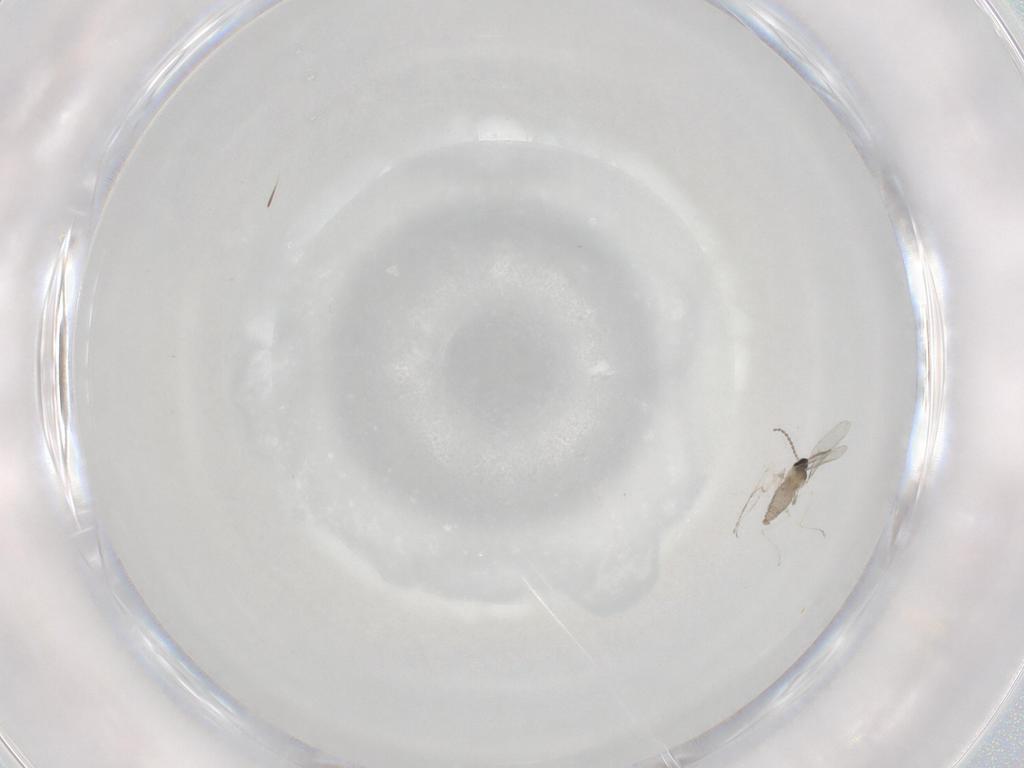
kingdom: Animalia
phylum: Arthropoda
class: Insecta
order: Diptera
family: Cecidomyiidae
